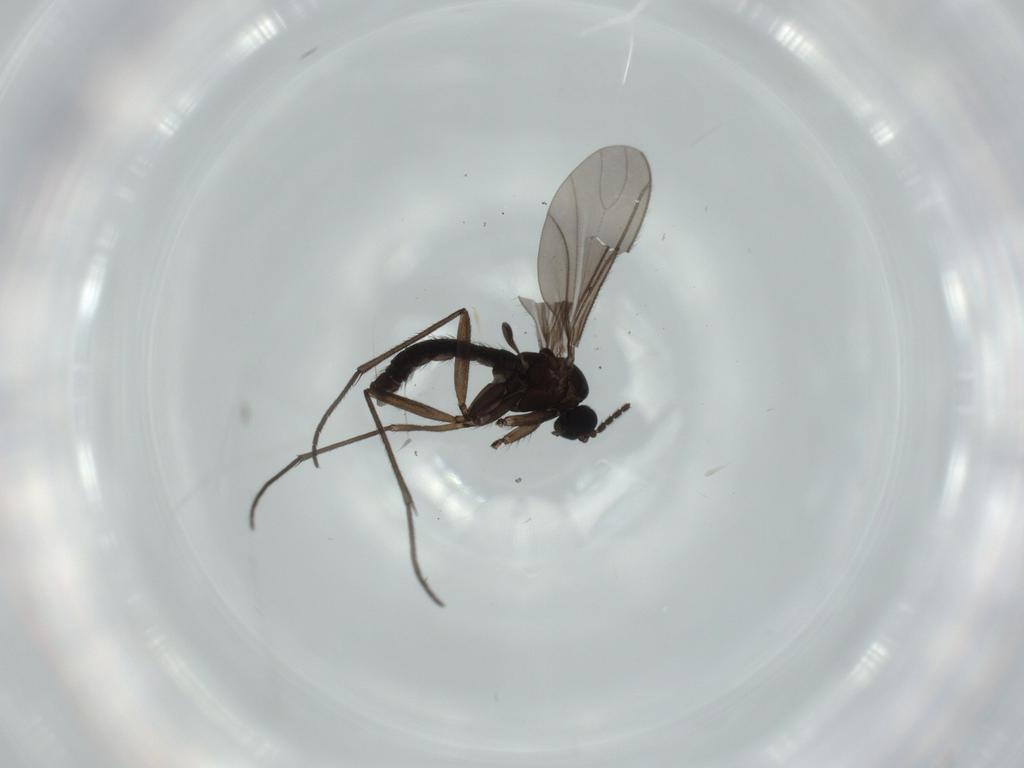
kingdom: Animalia
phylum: Arthropoda
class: Insecta
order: Diptera
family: Sciaridae
